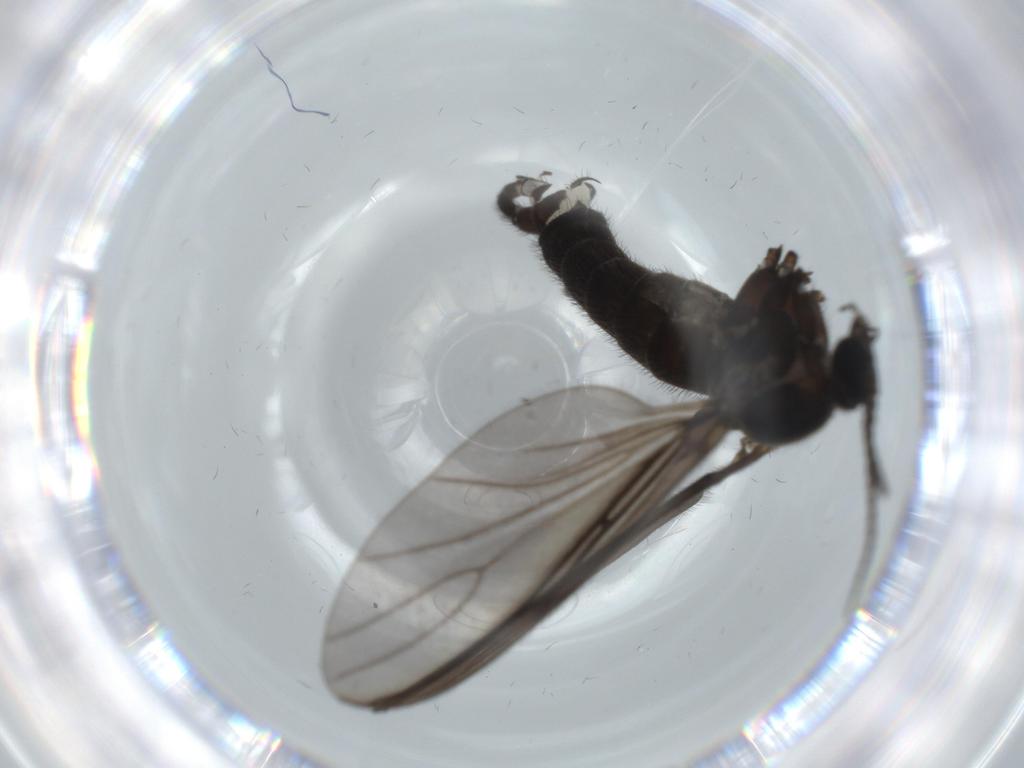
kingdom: Animalia
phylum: Arthropoda
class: Insecta
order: Diptera
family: Sciaridae
